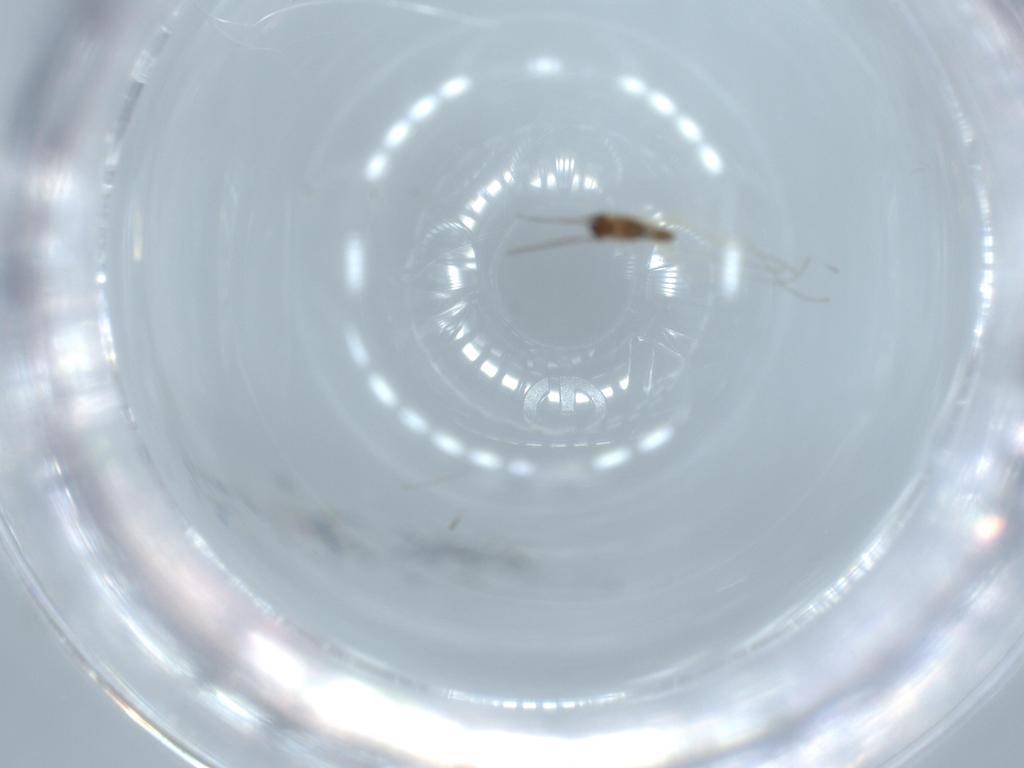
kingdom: Animalia
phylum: Arthropoda
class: Insecta
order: Diptera
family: Cecidomyiidae
